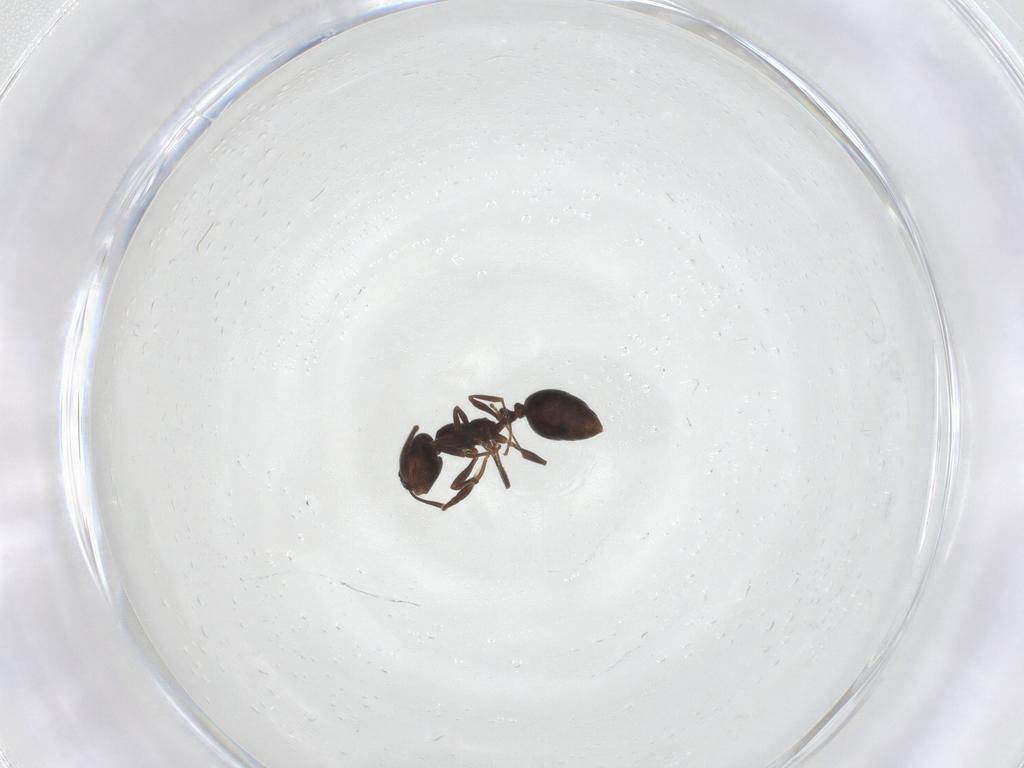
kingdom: Animalia
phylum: Arthropoda
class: Insecta
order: Hymenoptera
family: Formicidae
